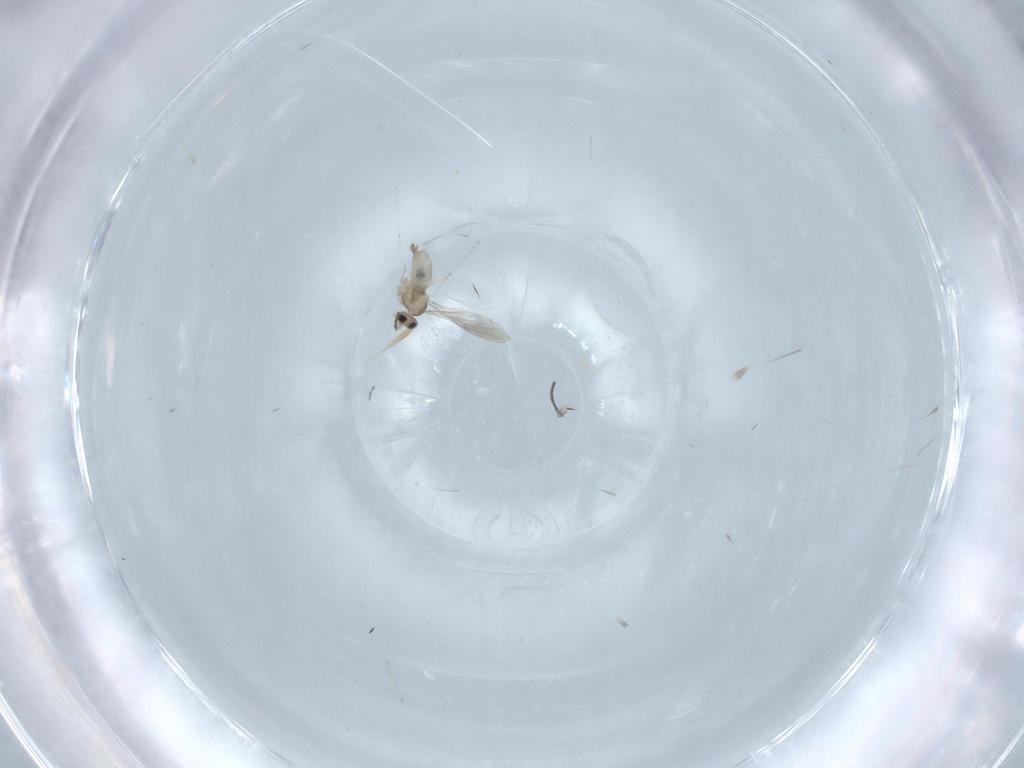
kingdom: Animalia
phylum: Arthropoda
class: Insecta
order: Diptera
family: Cecidomyiidae
